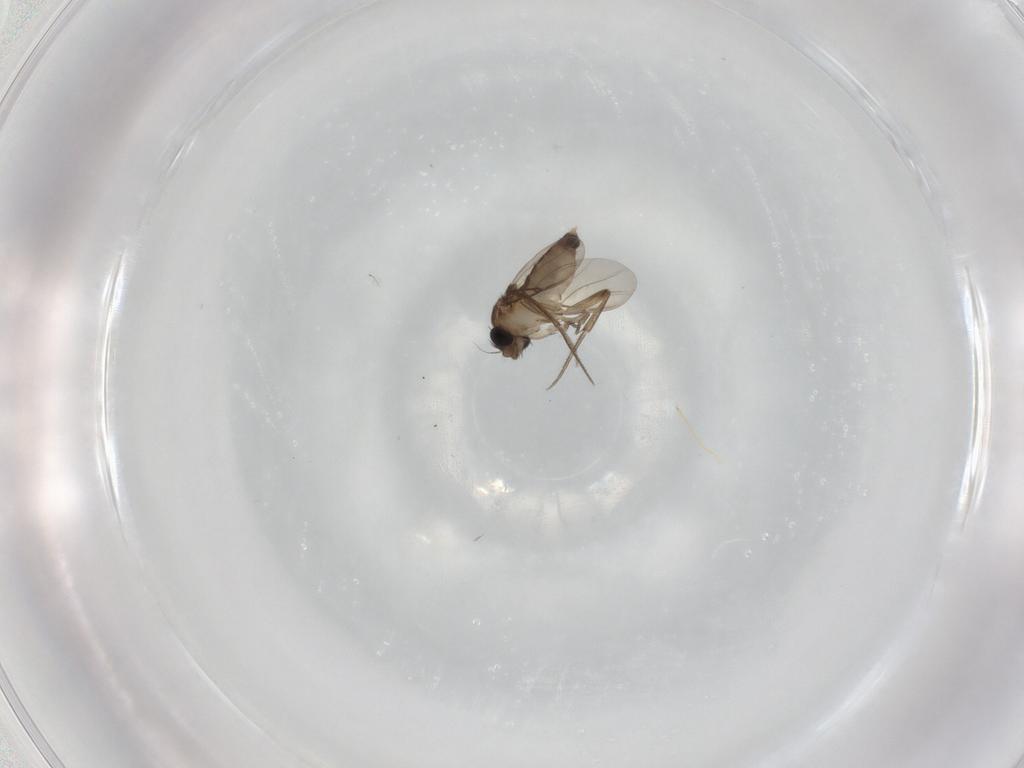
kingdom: Animalia
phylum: Arthropoda
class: Insecta
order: Diptera
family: Phoridae
